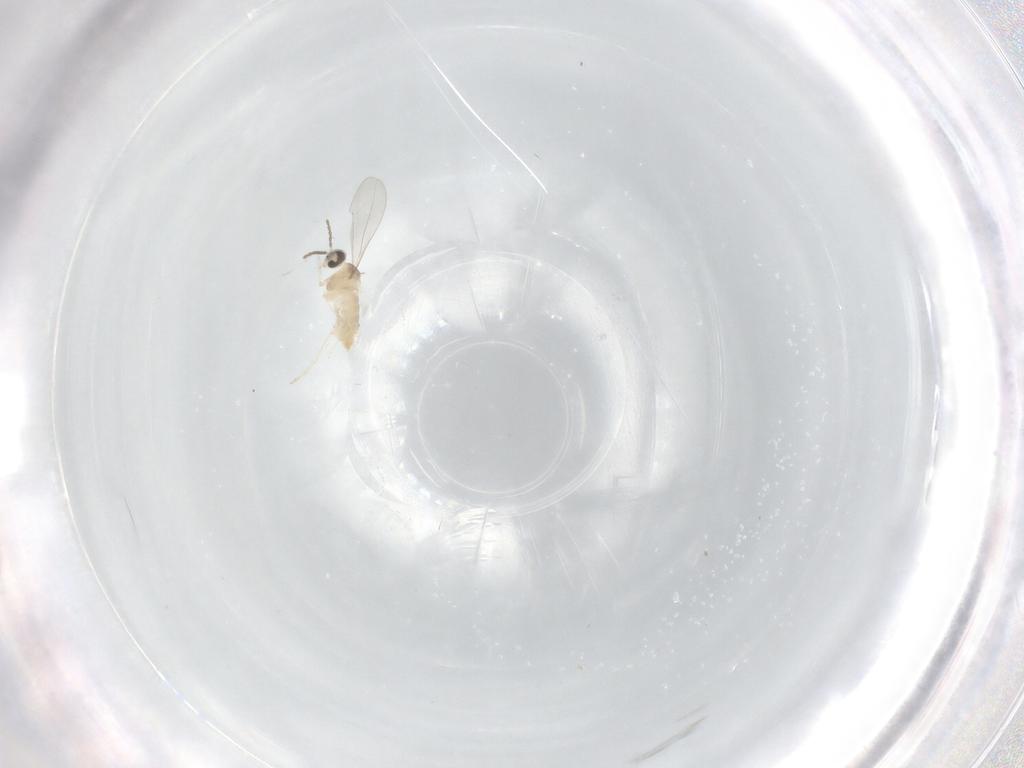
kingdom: Animalia
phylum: Arthropoda
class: Insecta
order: Diptera
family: Cecidomyiidae
